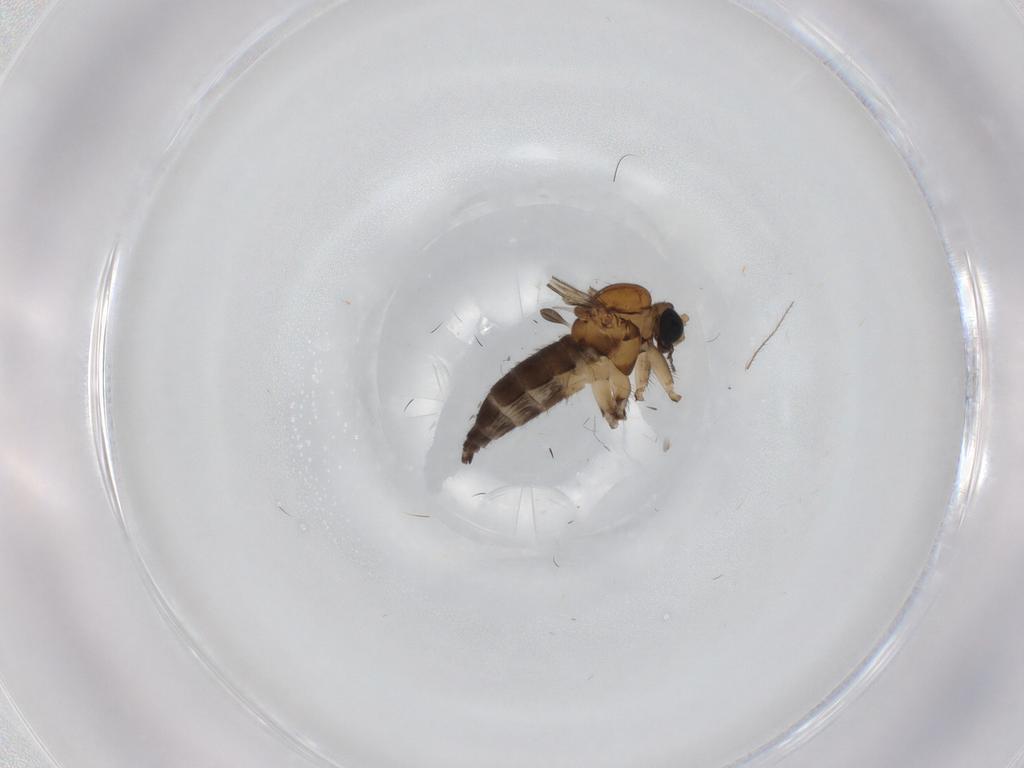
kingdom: Animalia
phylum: Arthropoda
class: Insecta
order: Diptera
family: Sciaridae
